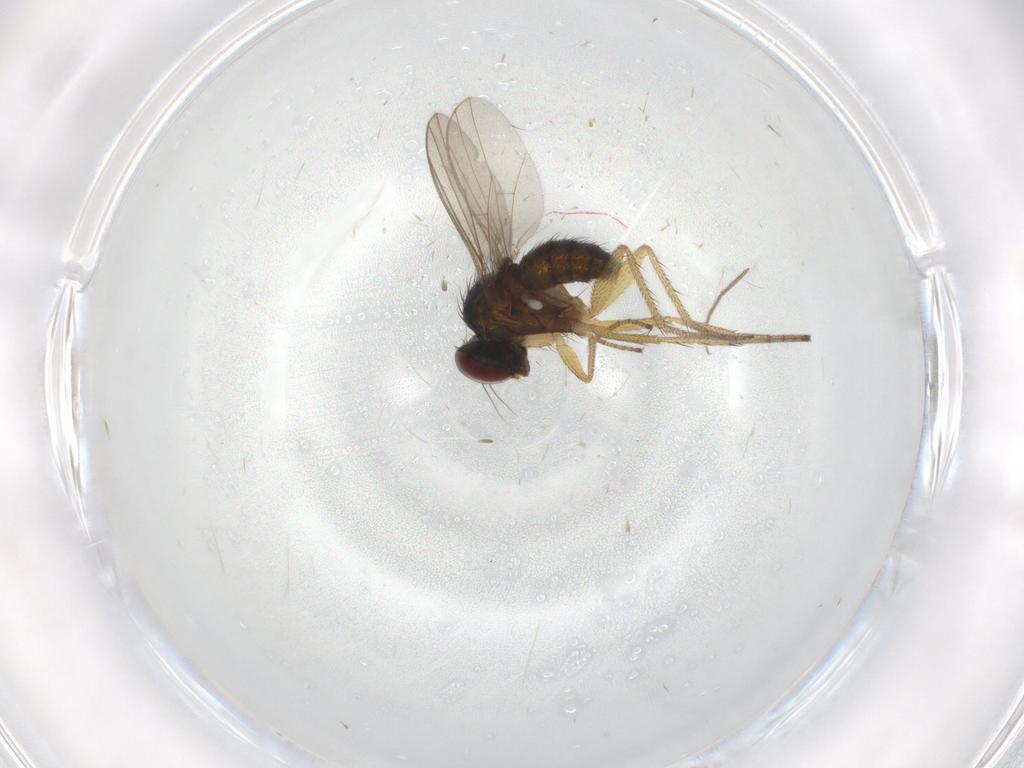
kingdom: Animalia
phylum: Arthropoda
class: Insecta
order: Diptera
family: Chironomidae
